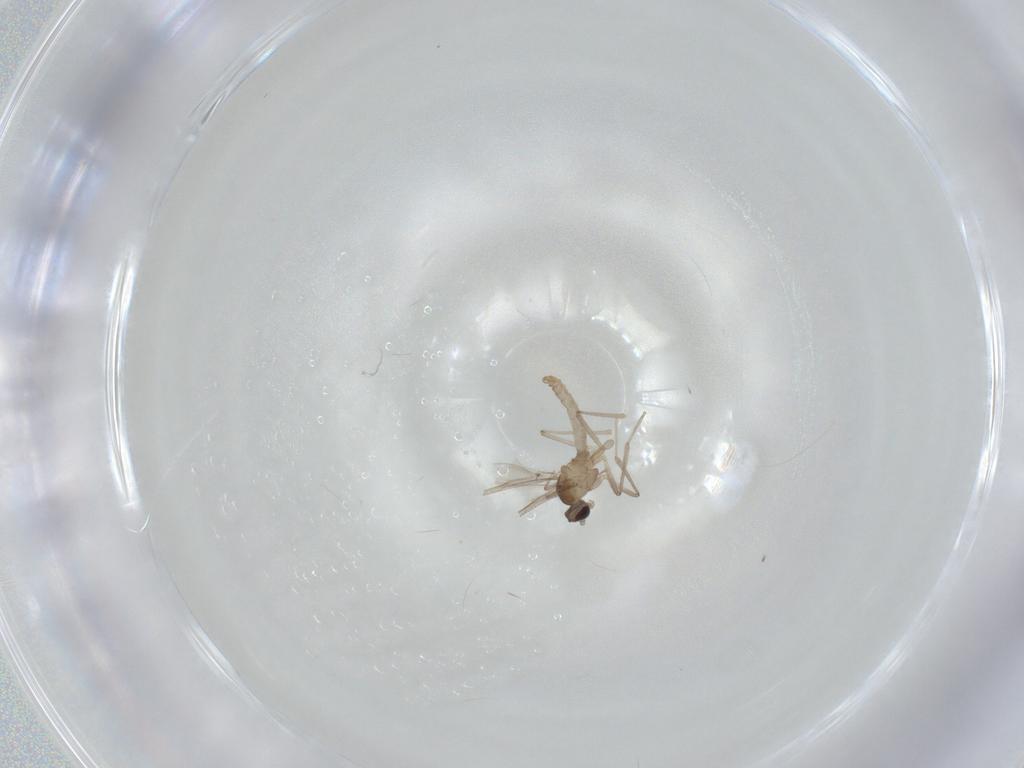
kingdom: Animalia
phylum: Arthropoda
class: Insecta
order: Diptera
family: Cecidomyiidae
